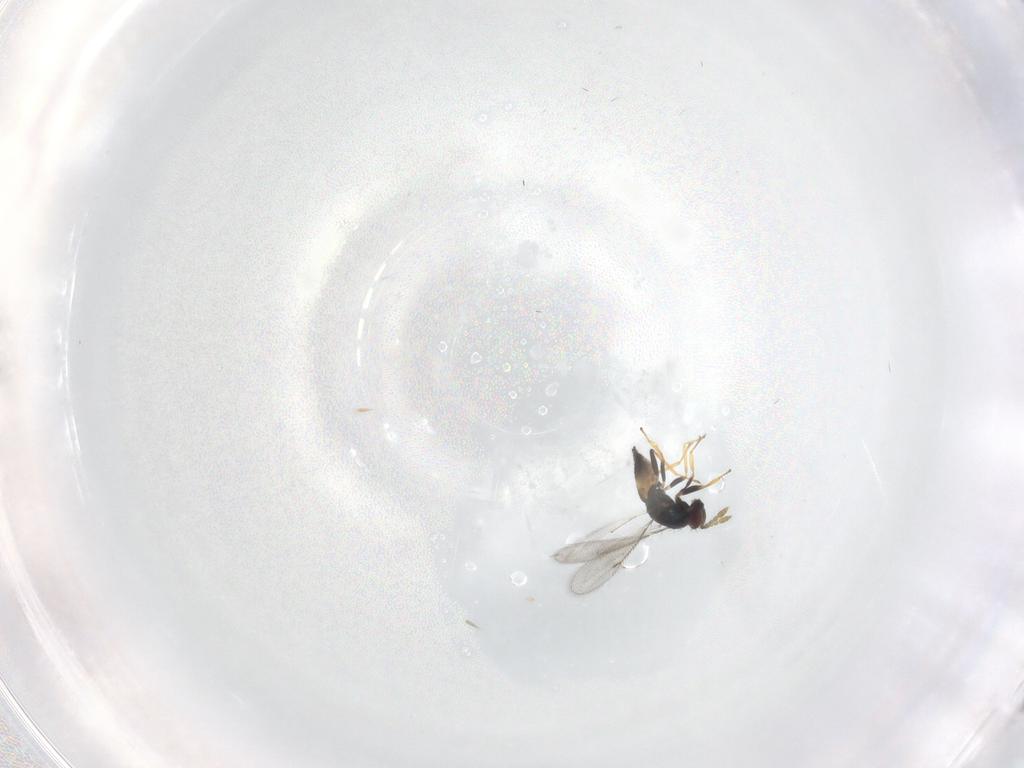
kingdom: Animalia
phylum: Arthropoda
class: Insecta
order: Hymenoptera
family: Eulophidae
